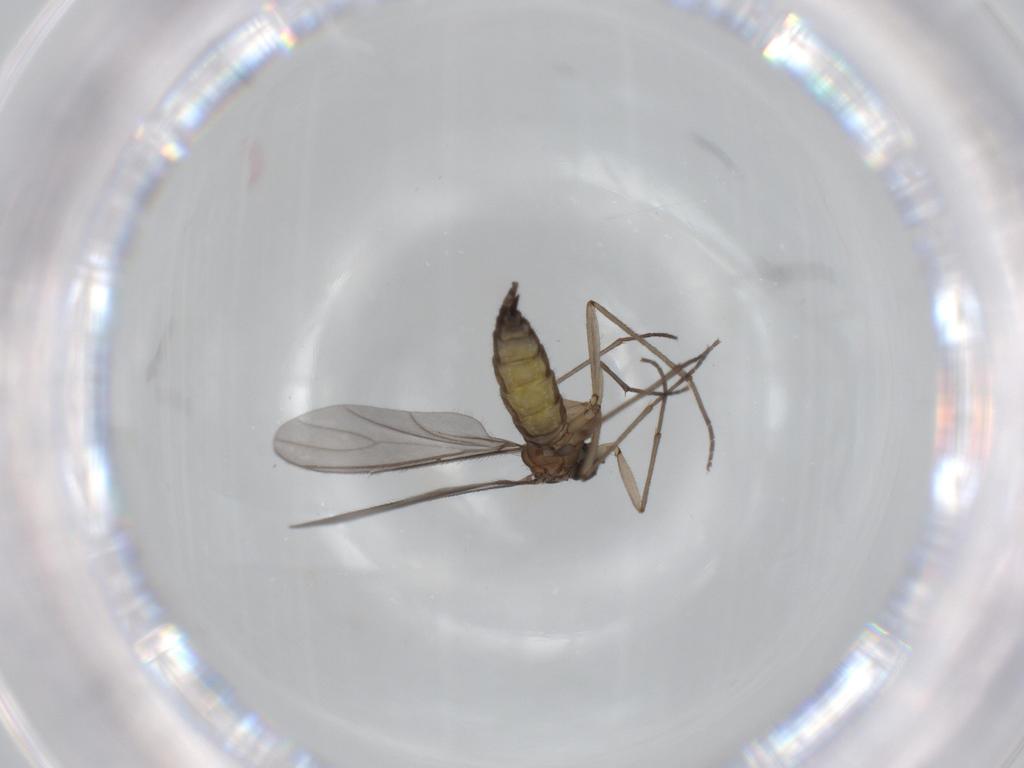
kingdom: Animalia
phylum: Arthropoda
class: Insecta
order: Diptera
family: Sciaridae
